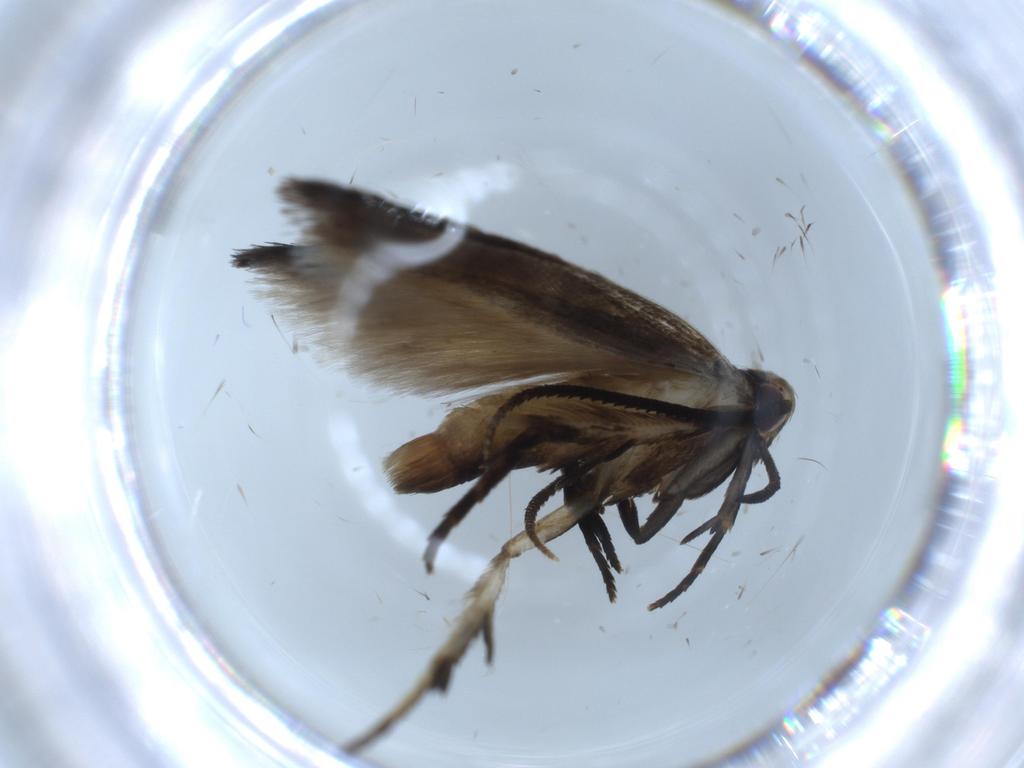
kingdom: Animalia
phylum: Arthropoda
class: Insecta
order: Lepidoptera
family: Cosmopterigidae
